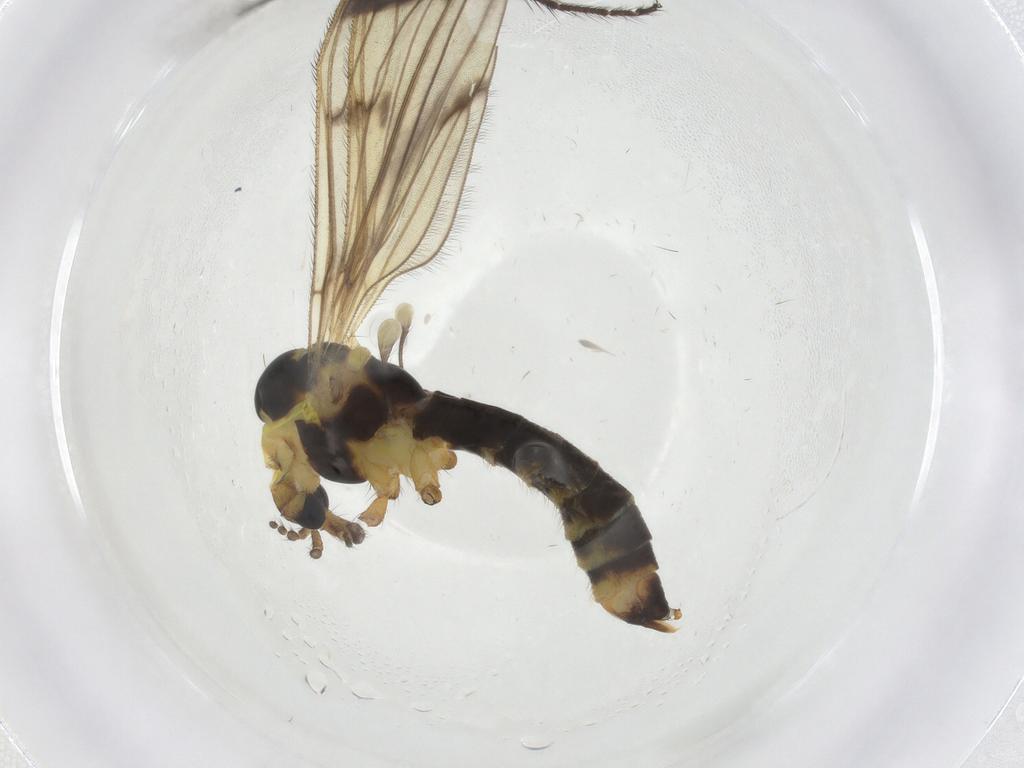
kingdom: Animalia
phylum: Arthropoda
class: Insecta
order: Diptera
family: Limoniidae
